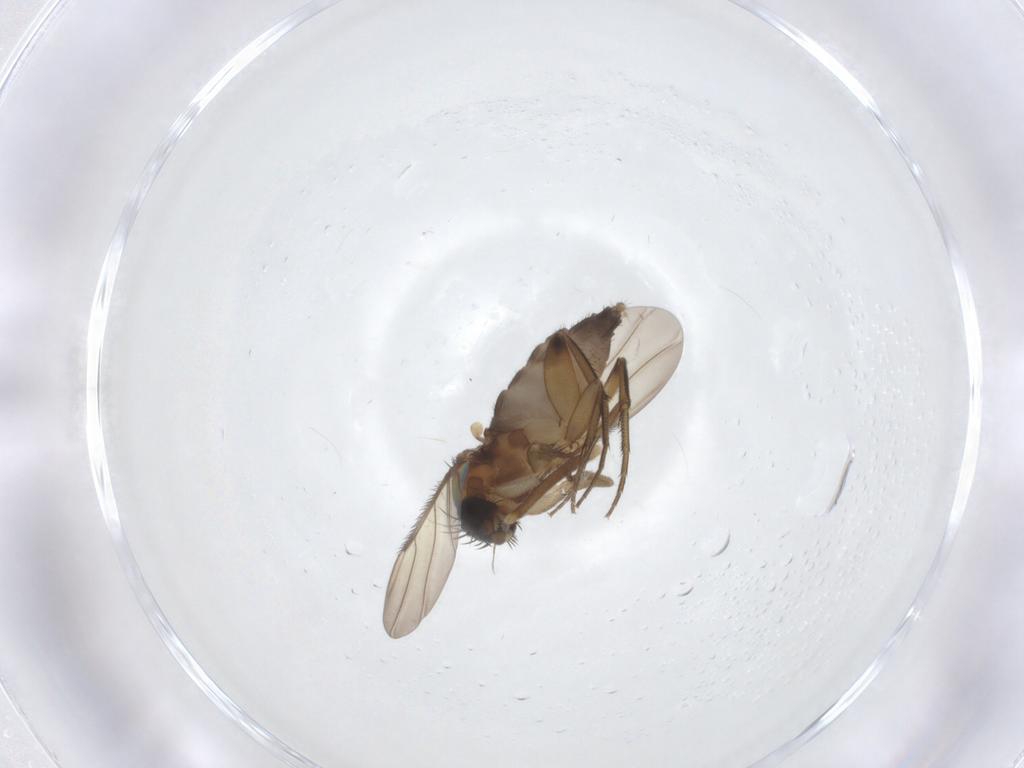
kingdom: Animalia
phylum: Arthropoda
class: Insecta
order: Diptera
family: Phoridae
